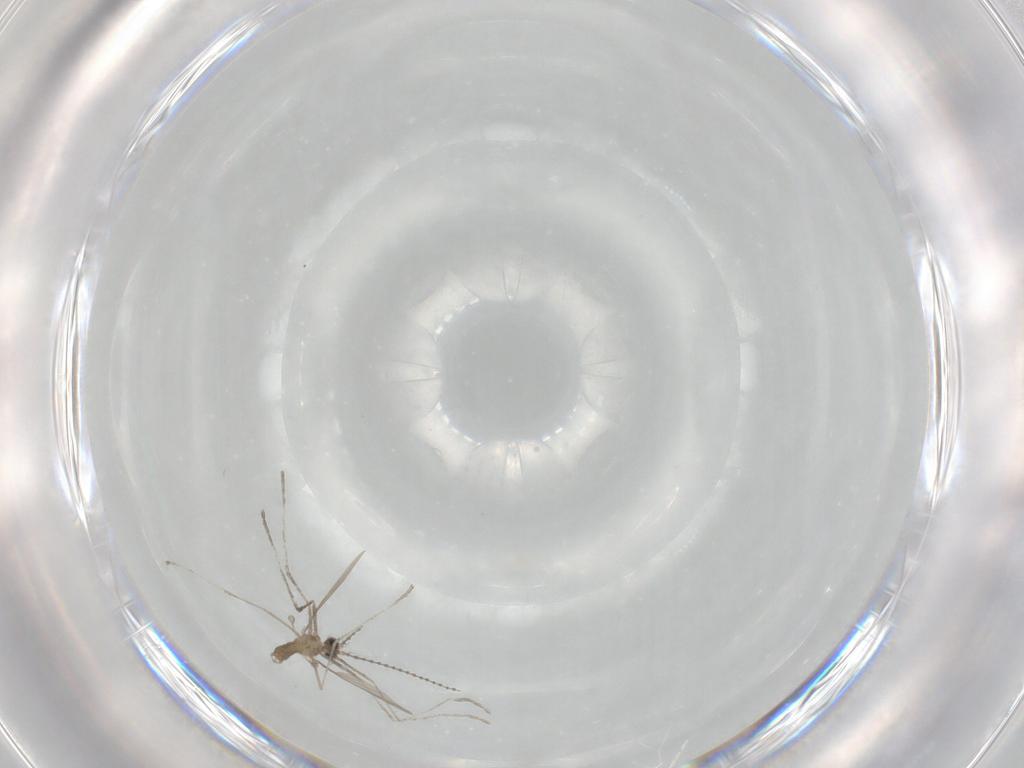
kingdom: Animalia
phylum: Arthropoda
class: Insecta
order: Diptera
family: Cecidomyiidae
